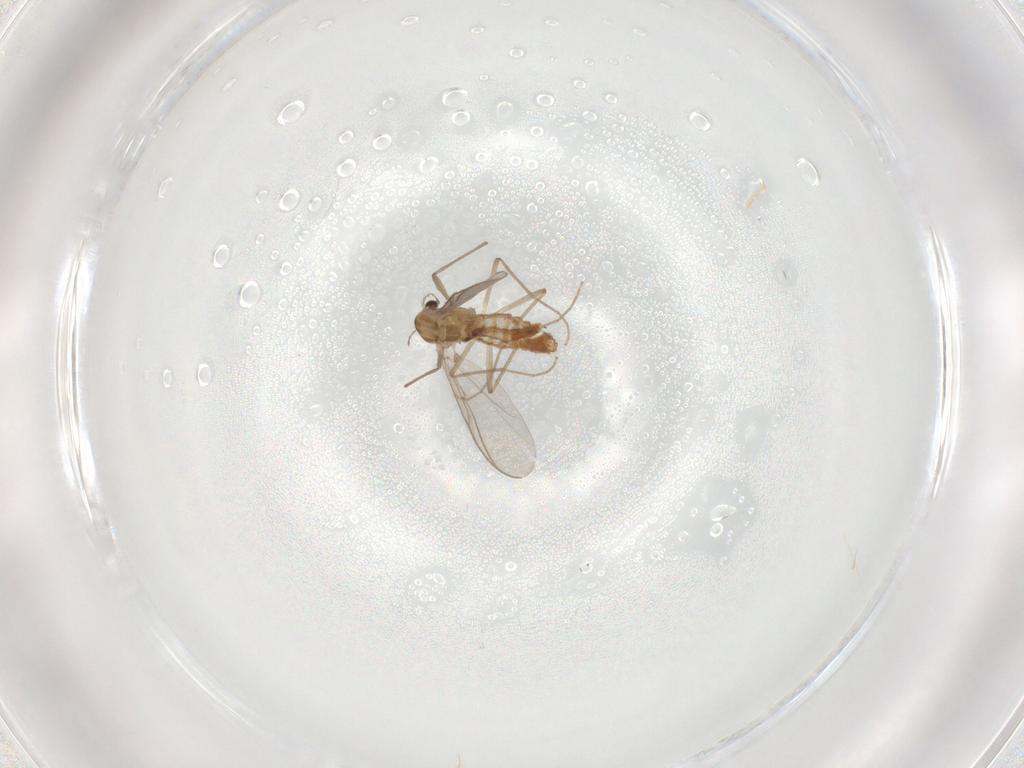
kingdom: Animalia
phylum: Arthropoda
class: Insecta
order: Diptera
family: Chironomidae
